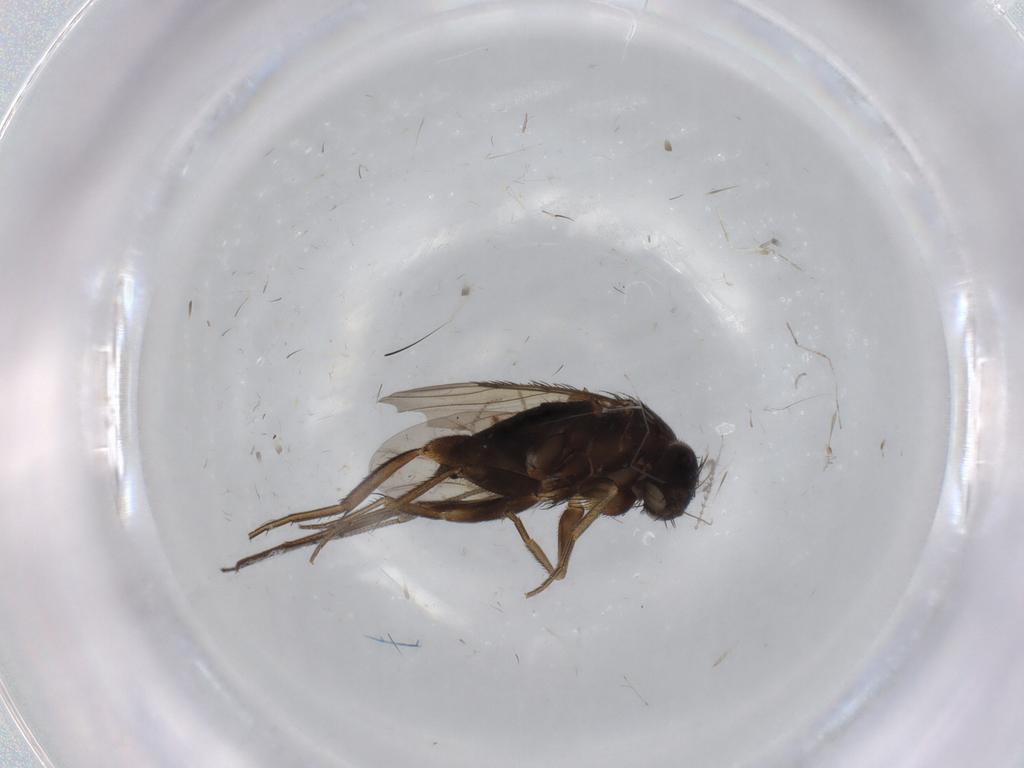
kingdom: Animalia
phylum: Arthropoda
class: Insecta
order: Diptera
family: Ditomyiidae
